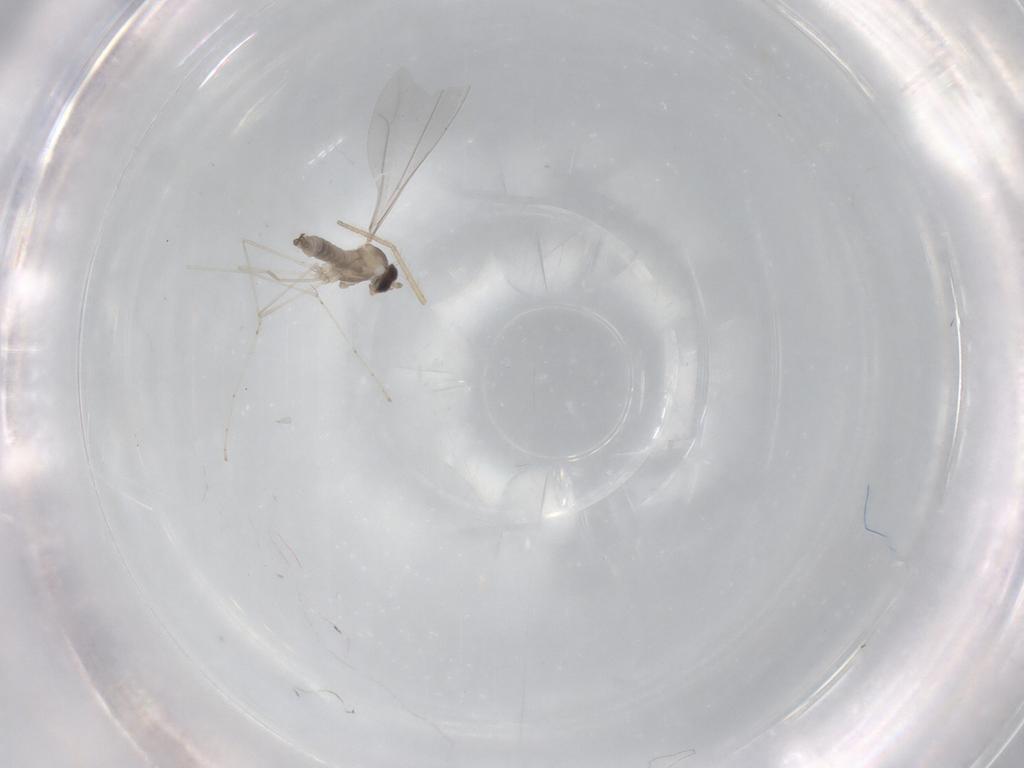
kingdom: Animalia
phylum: Arthropoda
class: Insecta
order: Diptera
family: Cecidomyiidae
